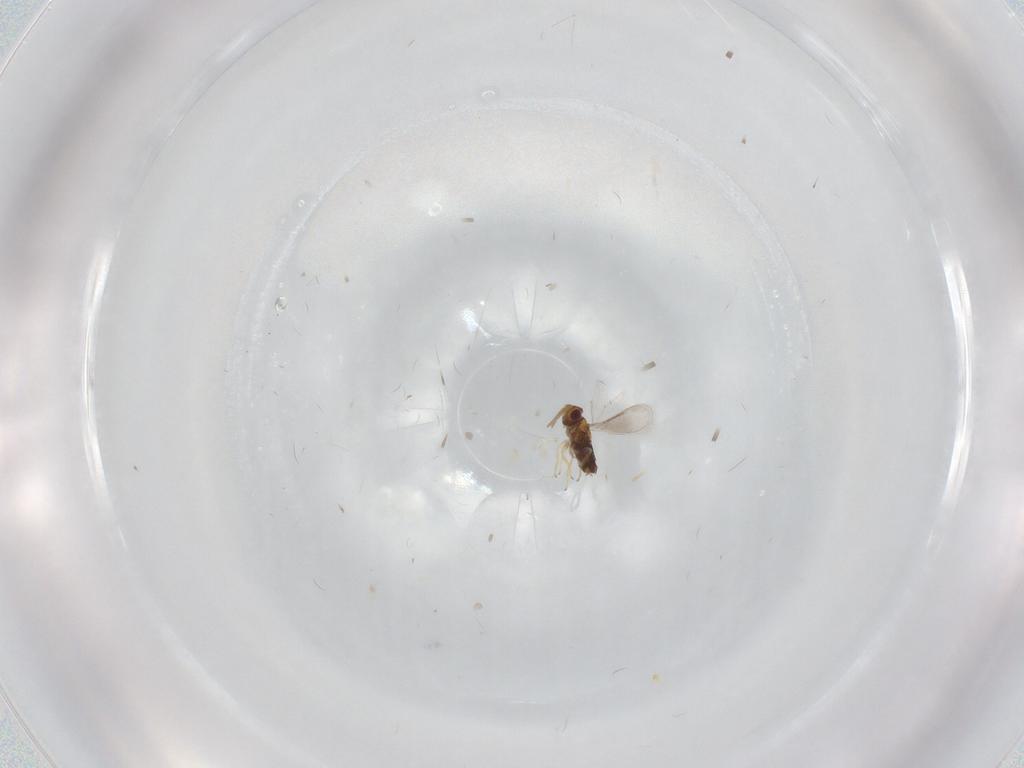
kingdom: Animalia
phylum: Arthropoda
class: Insecta
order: Hymenoptera
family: Aphelinidae
